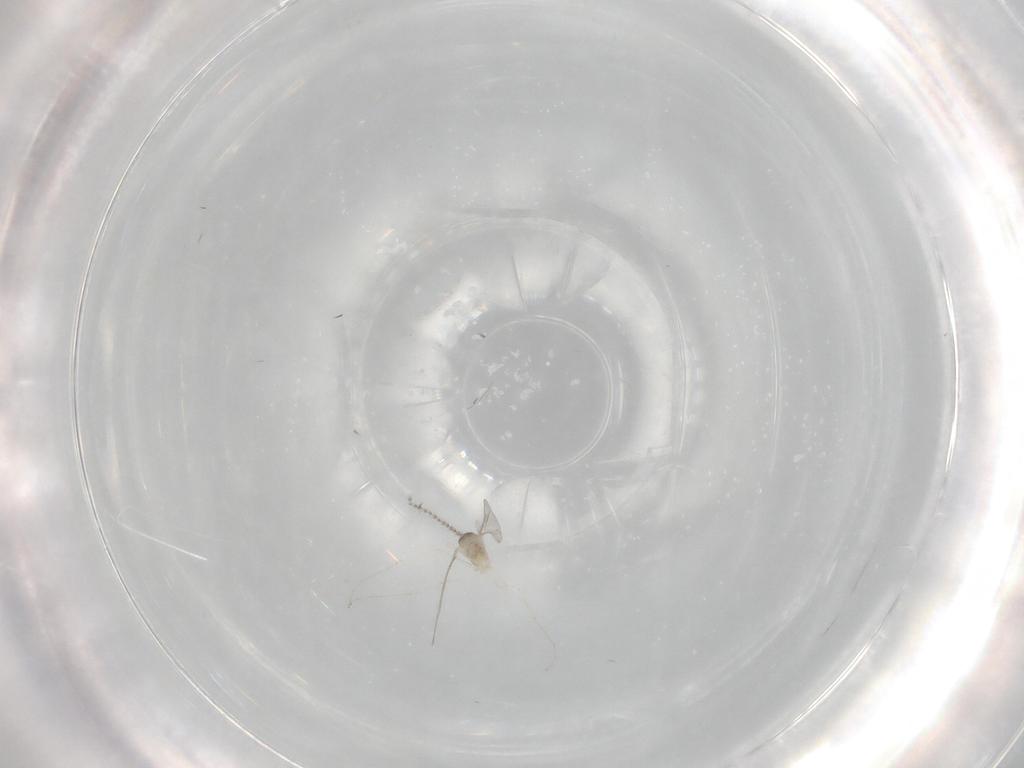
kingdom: Animalia
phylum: Arthropoda
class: Insecta
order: Diptera
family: Phoridae
